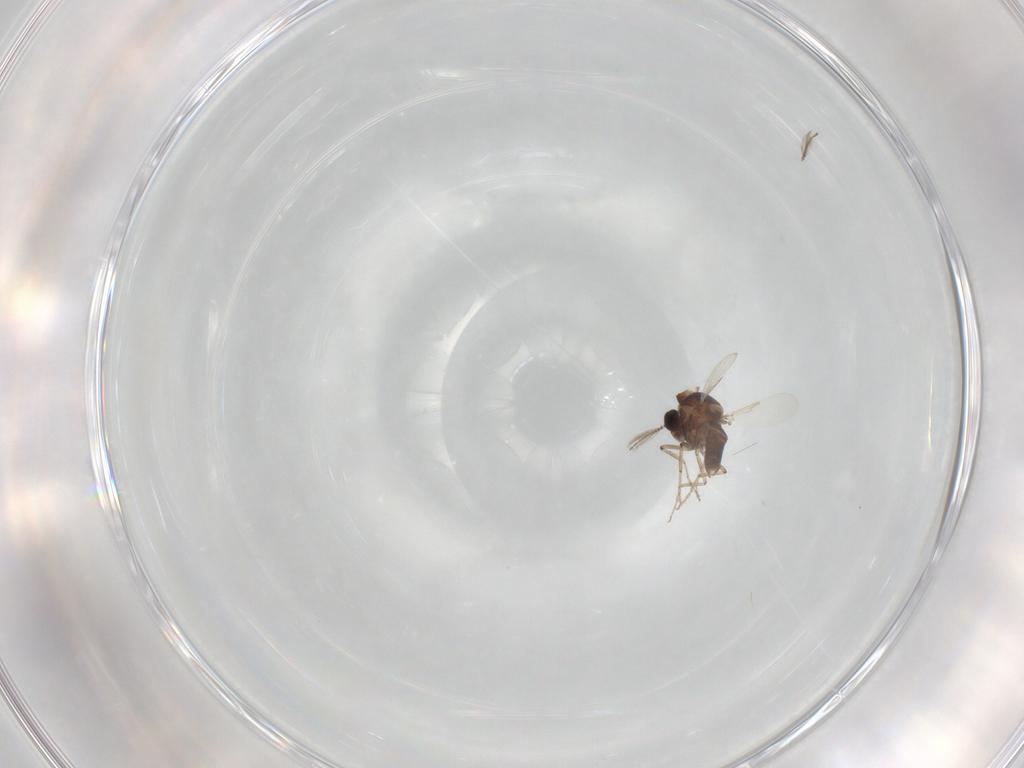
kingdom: Animalia
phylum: Arthropoda
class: Insecta
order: Diptera
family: Ceratopogonidae
